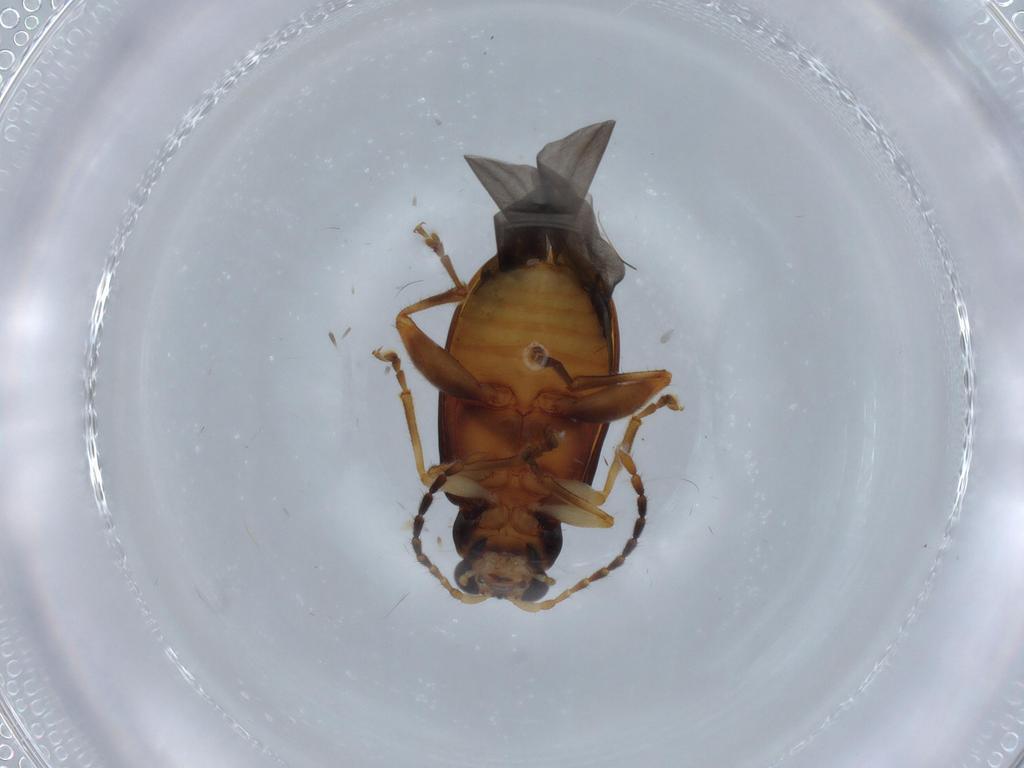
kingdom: Animalia
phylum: Arthropoda
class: Insecta
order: Coleoptera
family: Chrysomelidae
